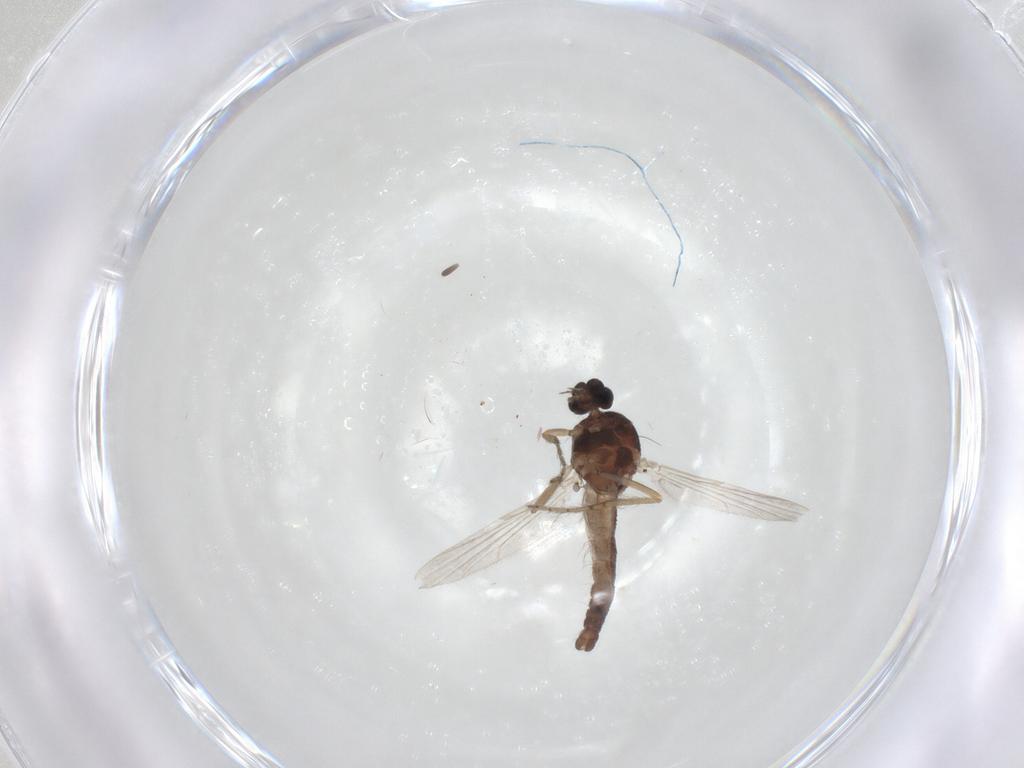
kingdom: Animalia
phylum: Arthropoda
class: Insecta
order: Diptera
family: Ceratopogonidae
